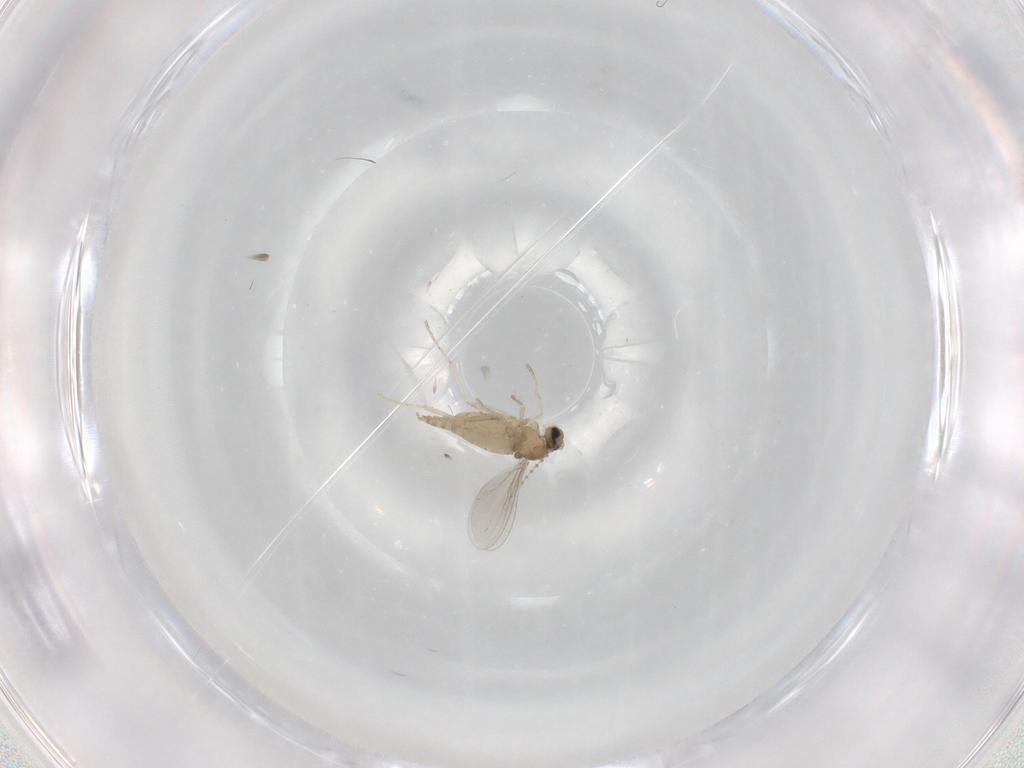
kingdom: Animalia
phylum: Arthropoda
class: Insecta
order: Diptera
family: Cecidomyiidae
